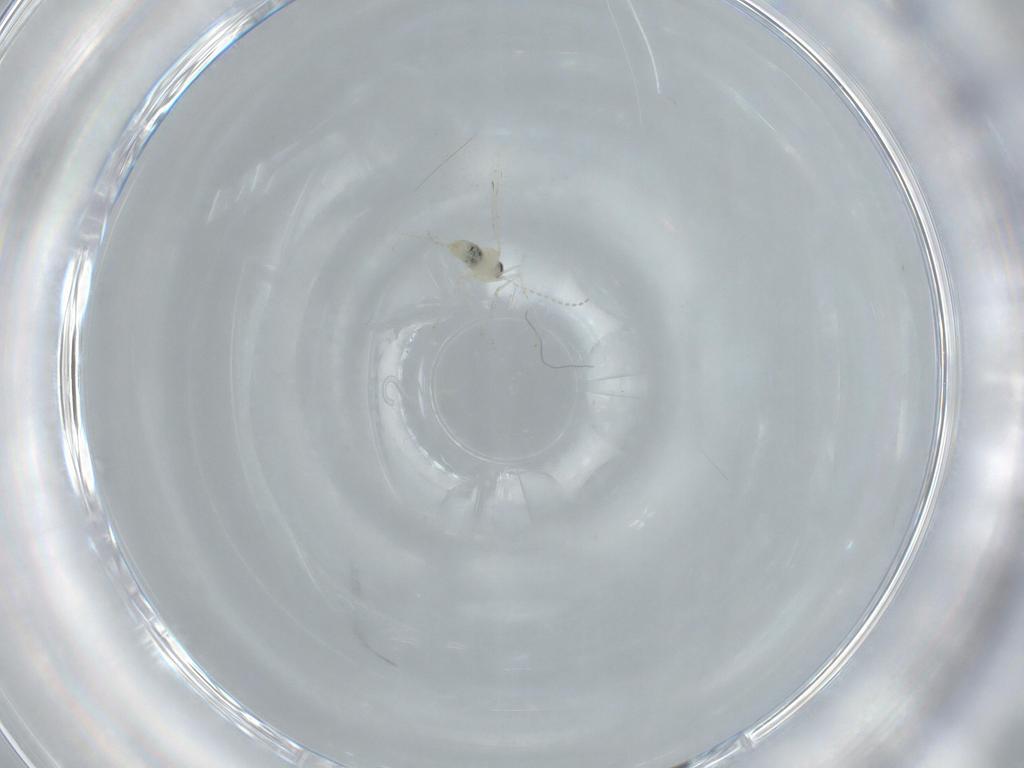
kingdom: Animalia
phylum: Arthropoda
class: Insecta
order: Diptera
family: Cecidomyiidae
